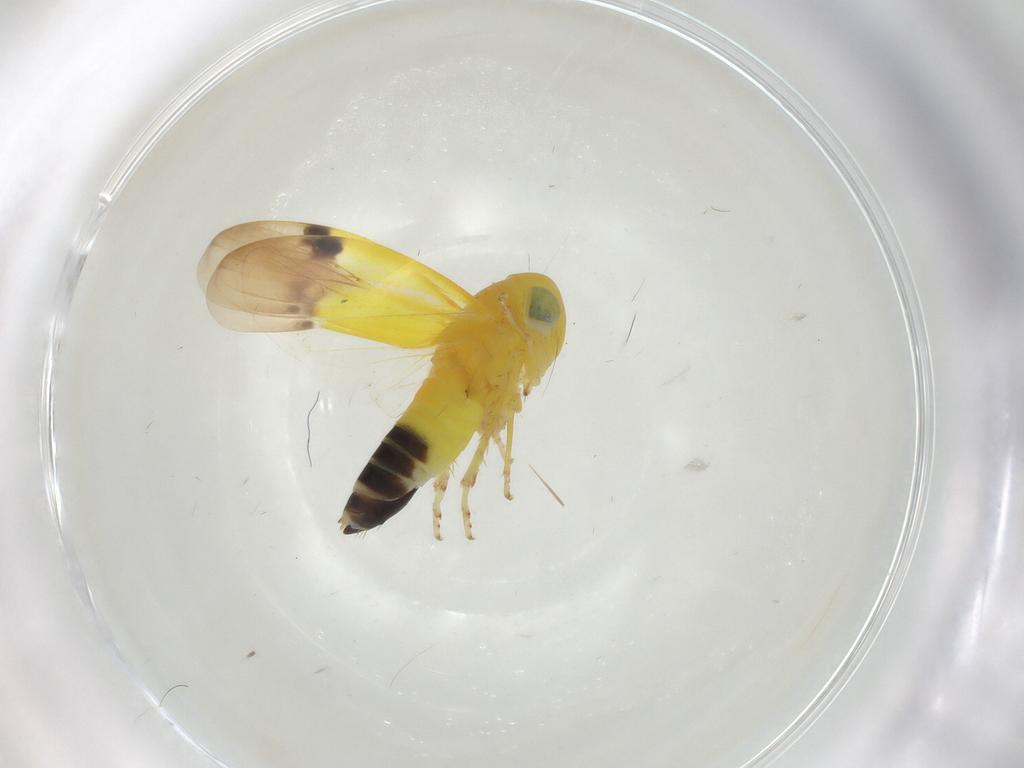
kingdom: Animalia
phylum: Arthropoda
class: Insecta
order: Hemiptera
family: Cicadellidae
